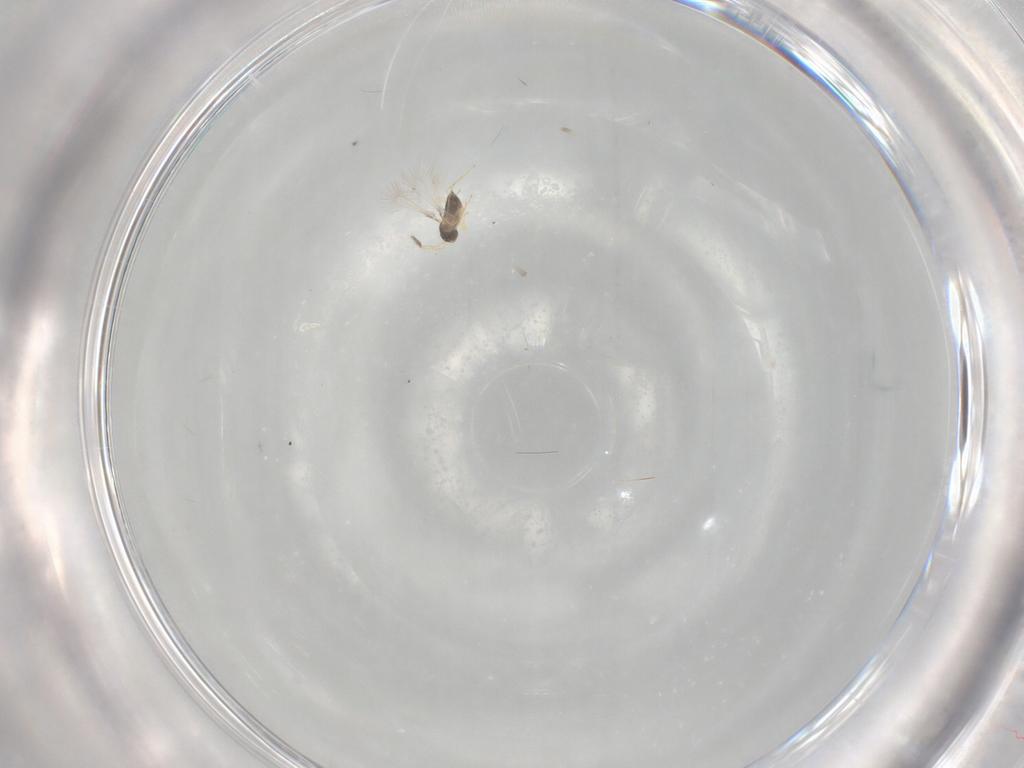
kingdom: Animalia
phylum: Arthropoda
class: Insecta
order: Hymenoptera
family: Mymaridae
